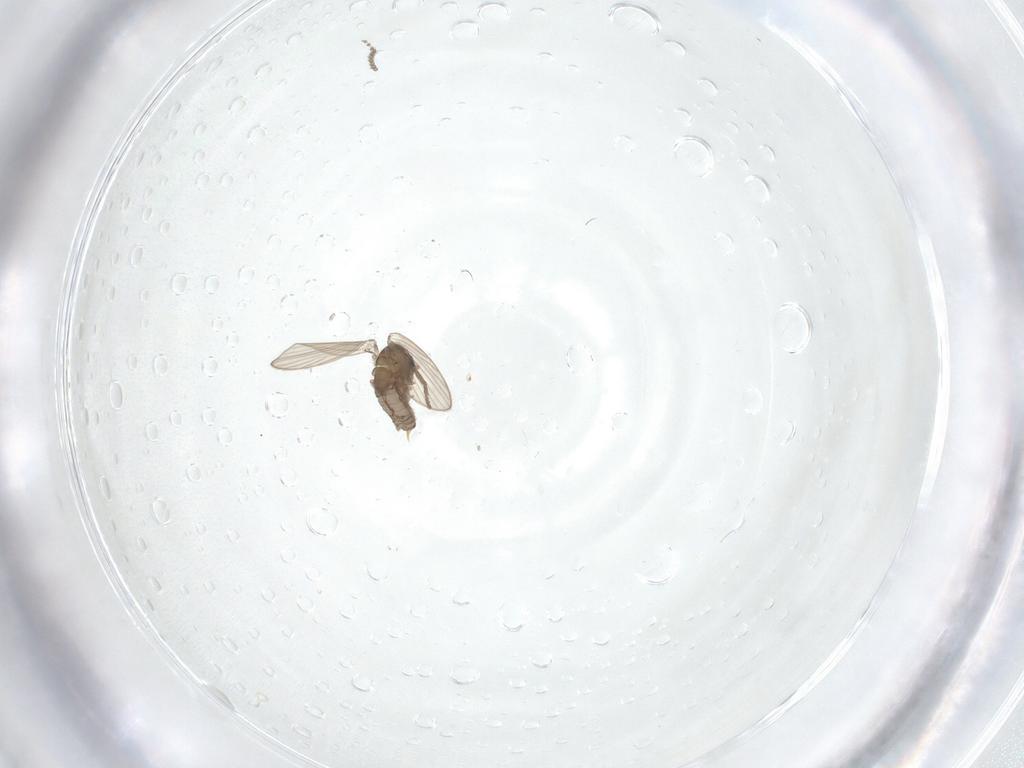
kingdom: Animalia
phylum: Arthropoda
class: Insecta
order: Diptera
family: Psychodidae
